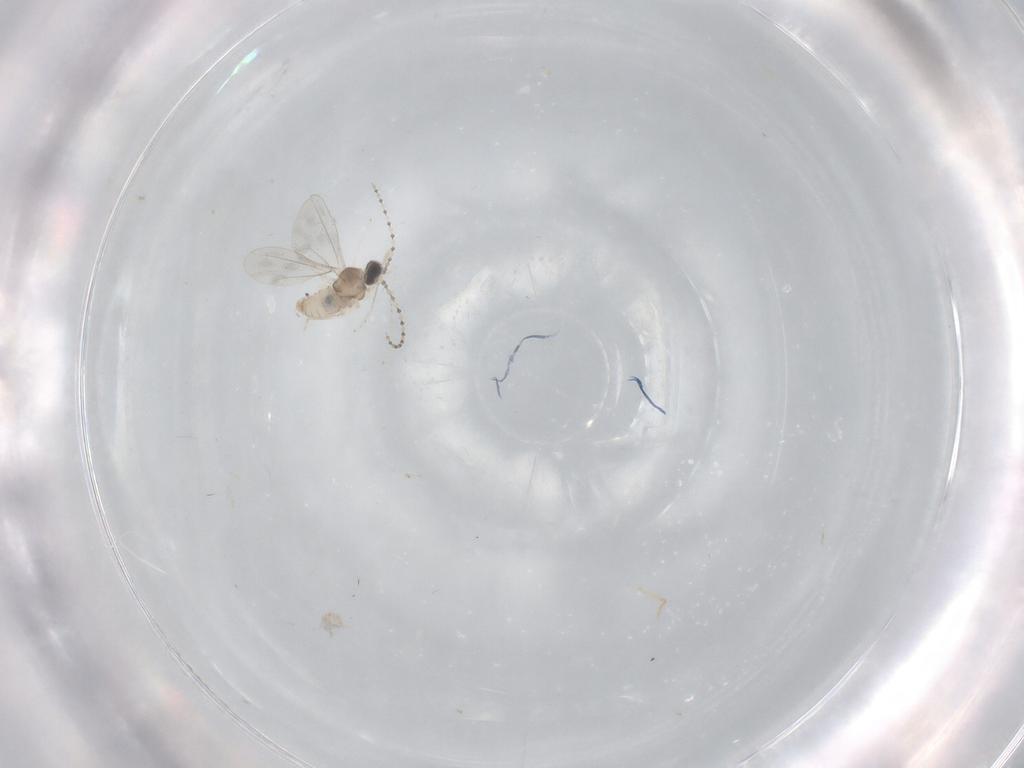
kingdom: Animalia
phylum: Arthropoda
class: Insecta
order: Diptera
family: Cecidomyiidae
